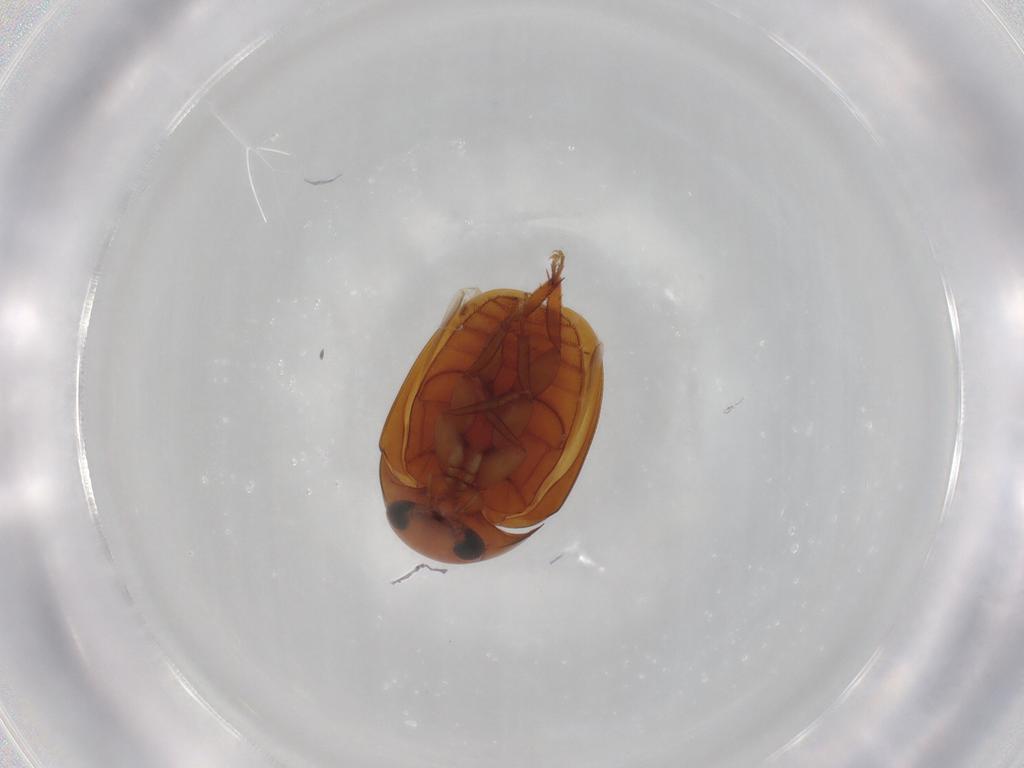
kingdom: Animalia
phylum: Arthropoda
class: Insecta
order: Coleoptera
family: Phalacridae
